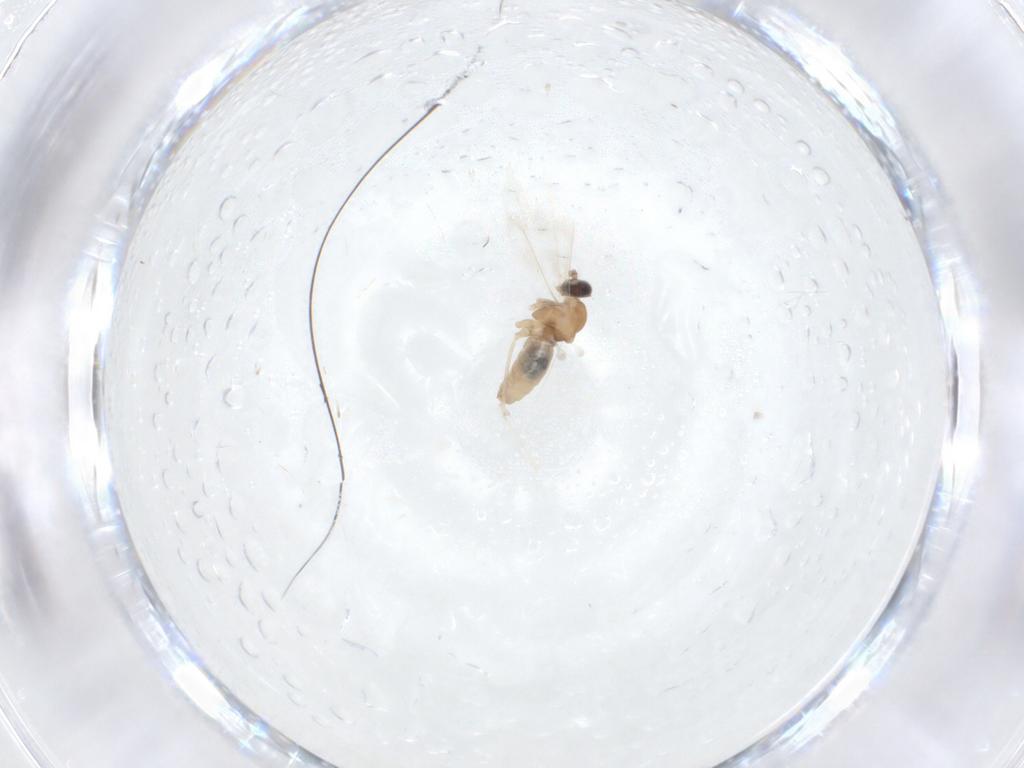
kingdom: Animalia
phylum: Arthropoda
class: Insecta
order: Diptera
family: Cecidomyiidae
